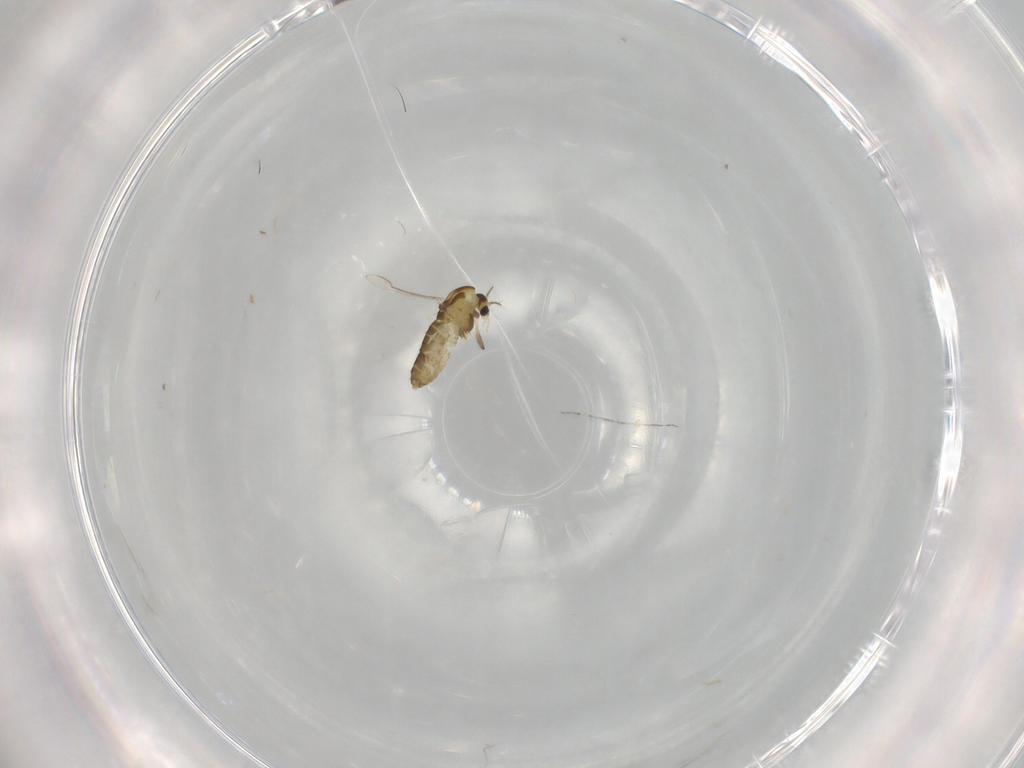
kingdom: Animalia
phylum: Arthropoda
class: Insecta
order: Diptera
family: Chironomidae
